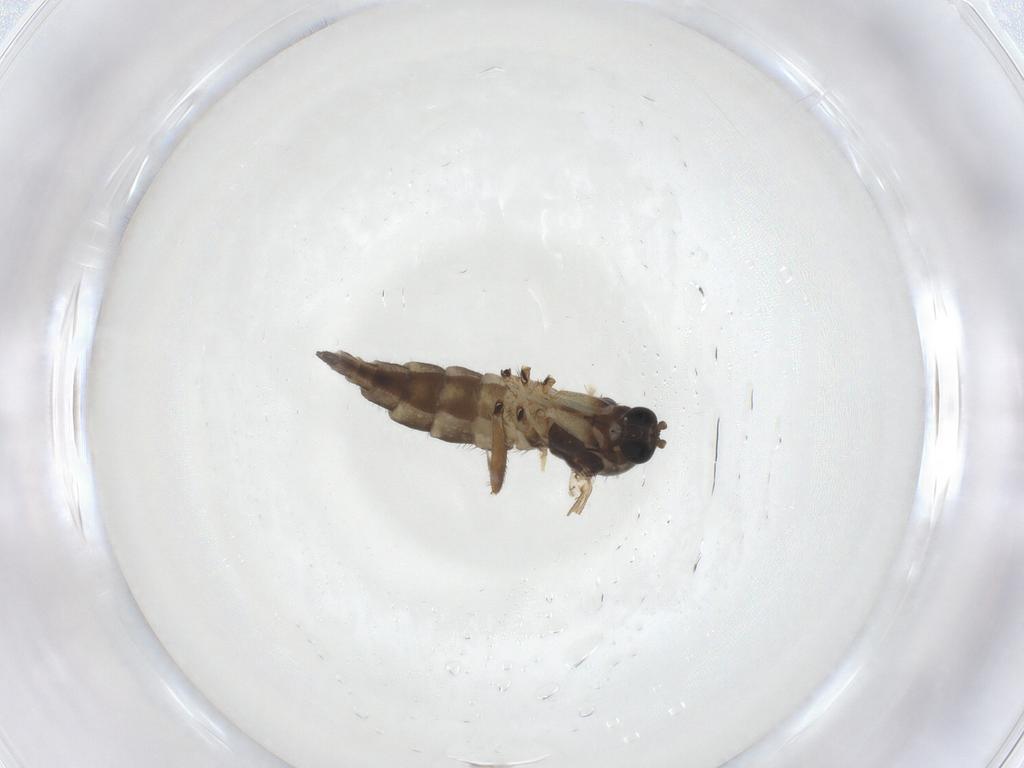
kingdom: Animalia
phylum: Arthropoda
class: Insecta
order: Diptera
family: Sciaridae
